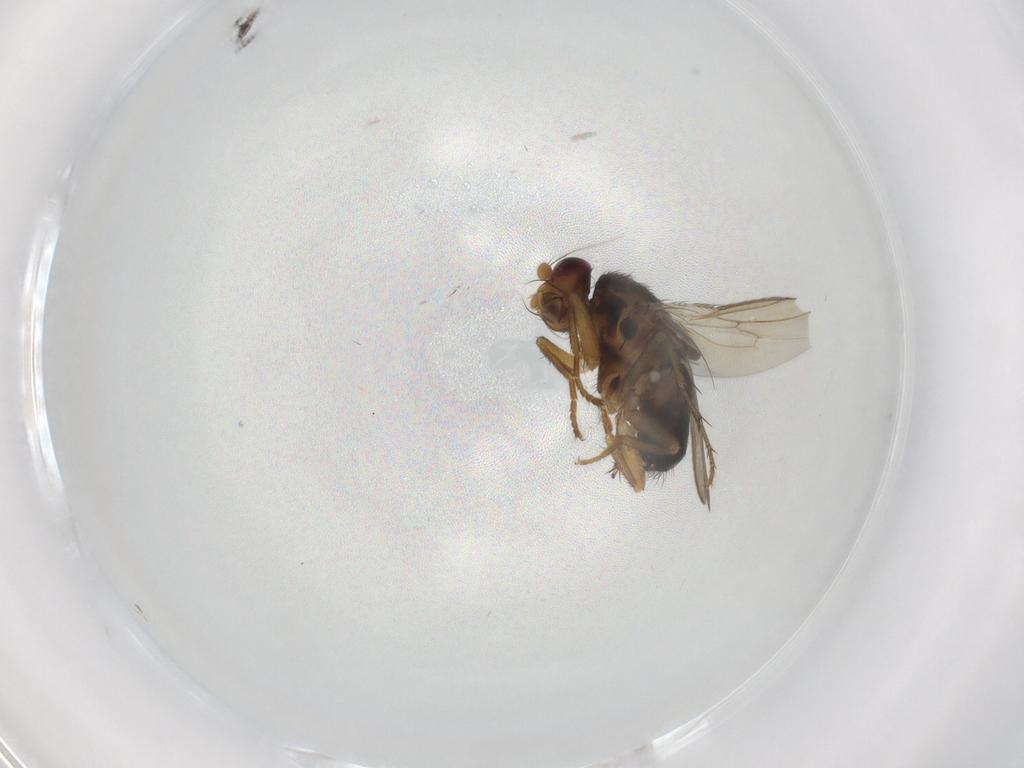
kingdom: Animalia
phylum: Arthropoda
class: Insecta
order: Diptera
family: Sphaeroceridae
